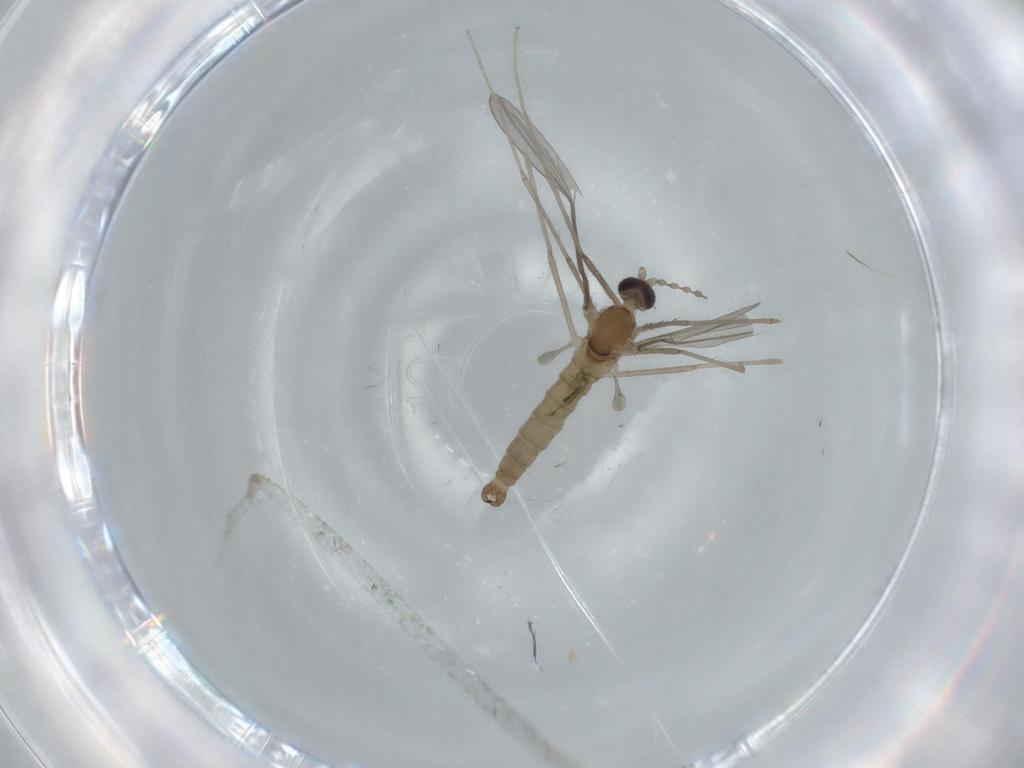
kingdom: Animalia
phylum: Arthropoda
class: Insecta
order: Diptera
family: Cecidomyiidae
